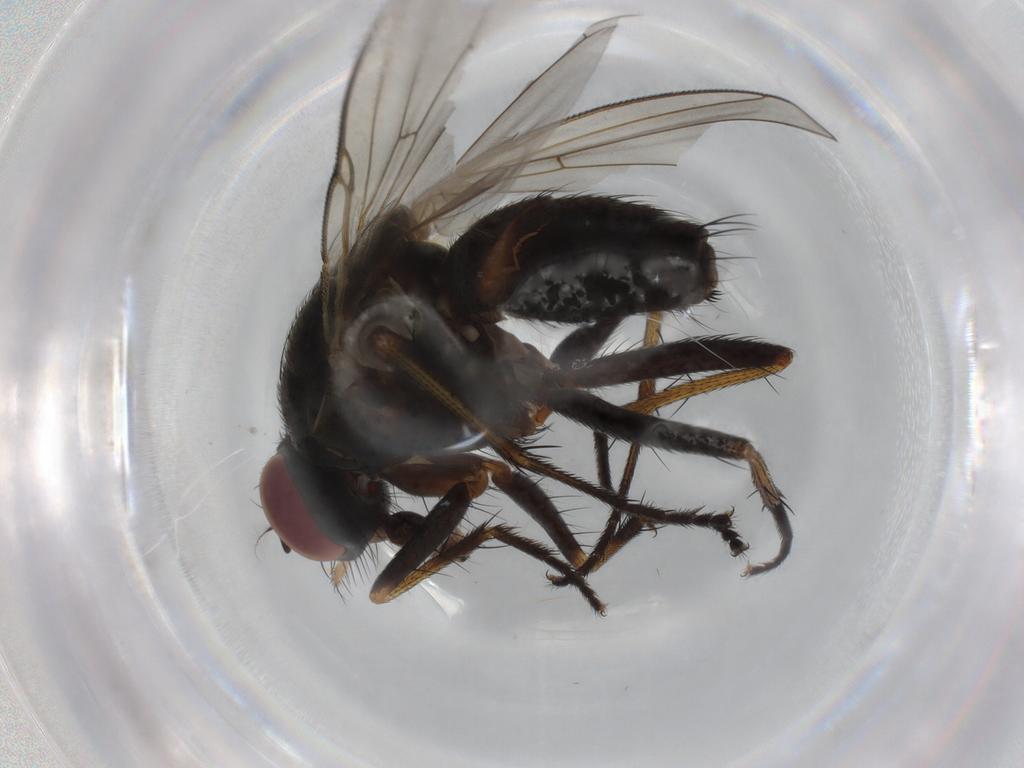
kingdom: Animalia
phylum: Arthropoda
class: Insecta
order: Diptera
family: Muscidae
